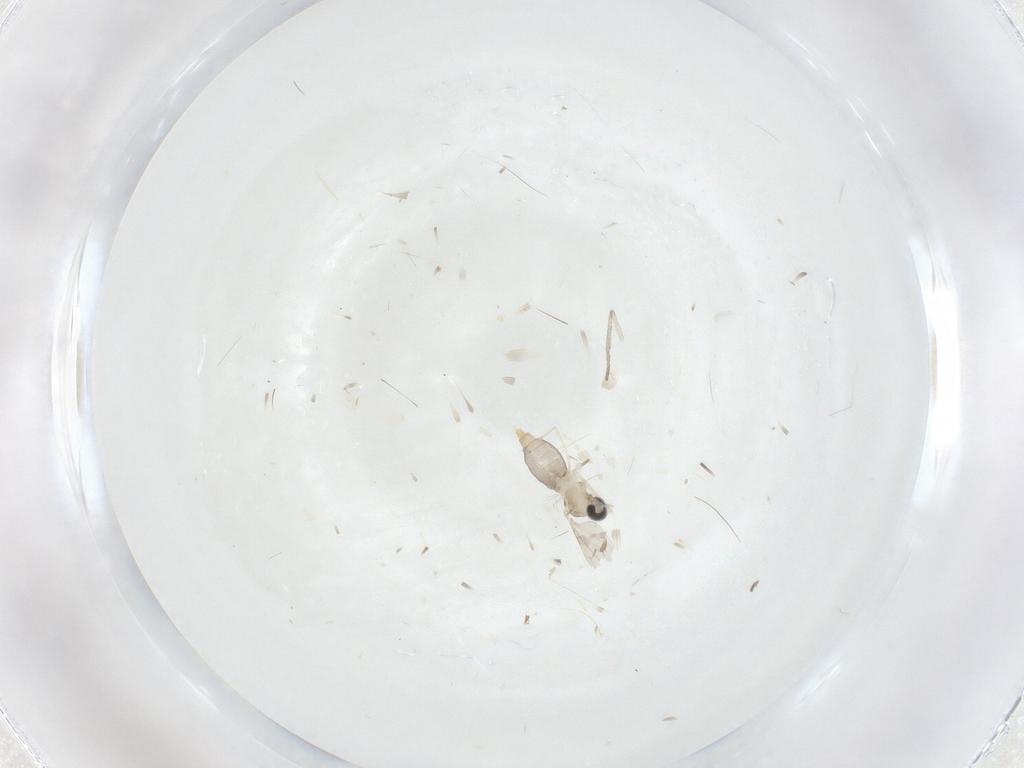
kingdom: Animalia
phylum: Arthropoda
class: Insecta
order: Diptera
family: Cecidomyiidae
